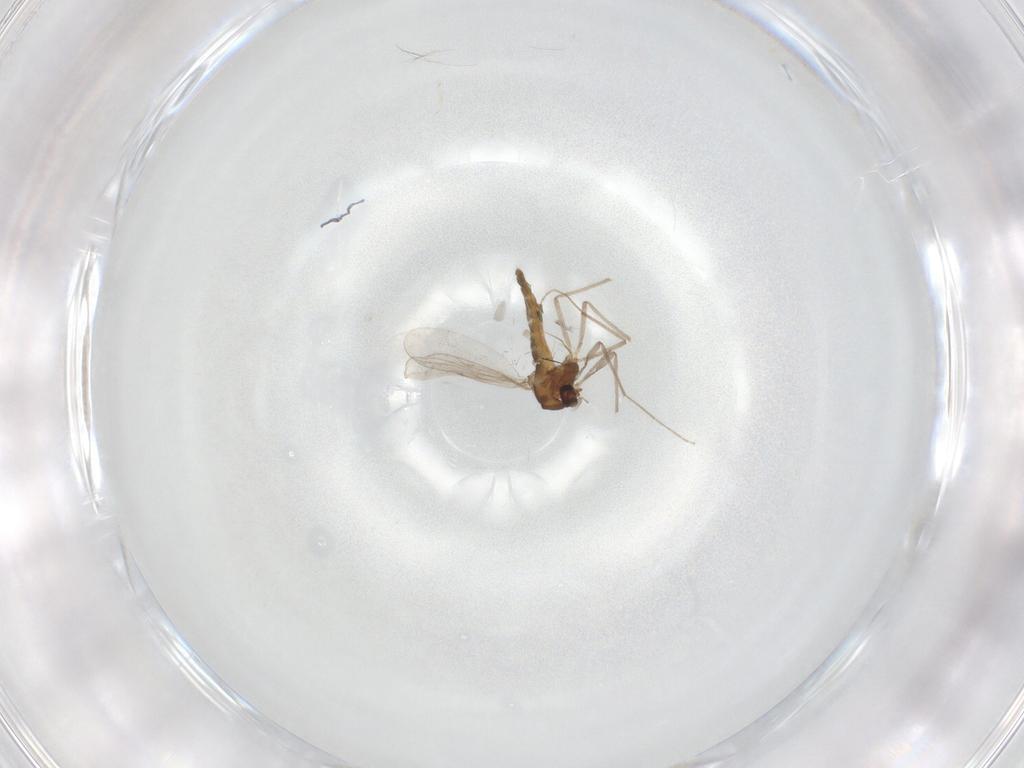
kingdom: Animalia
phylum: Arthropoda
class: Insecta
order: Diptera
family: Chironomidae
